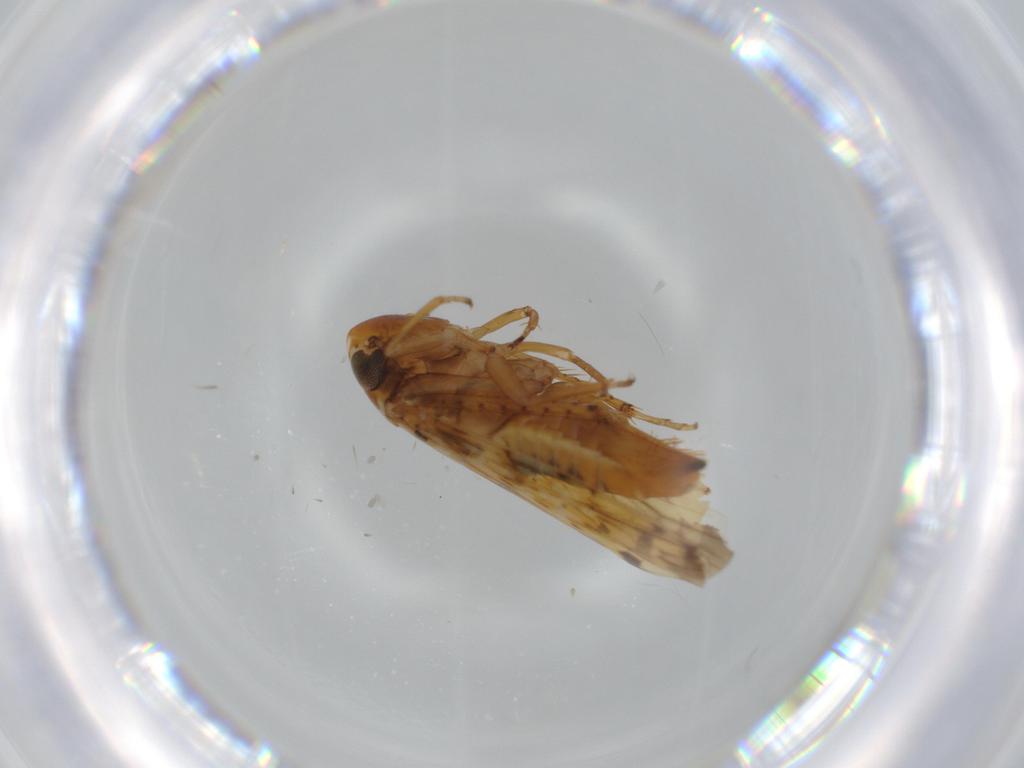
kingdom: Animalia
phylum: Arthropoda
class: Insecta
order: Hemiptera
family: Cicadellidae
